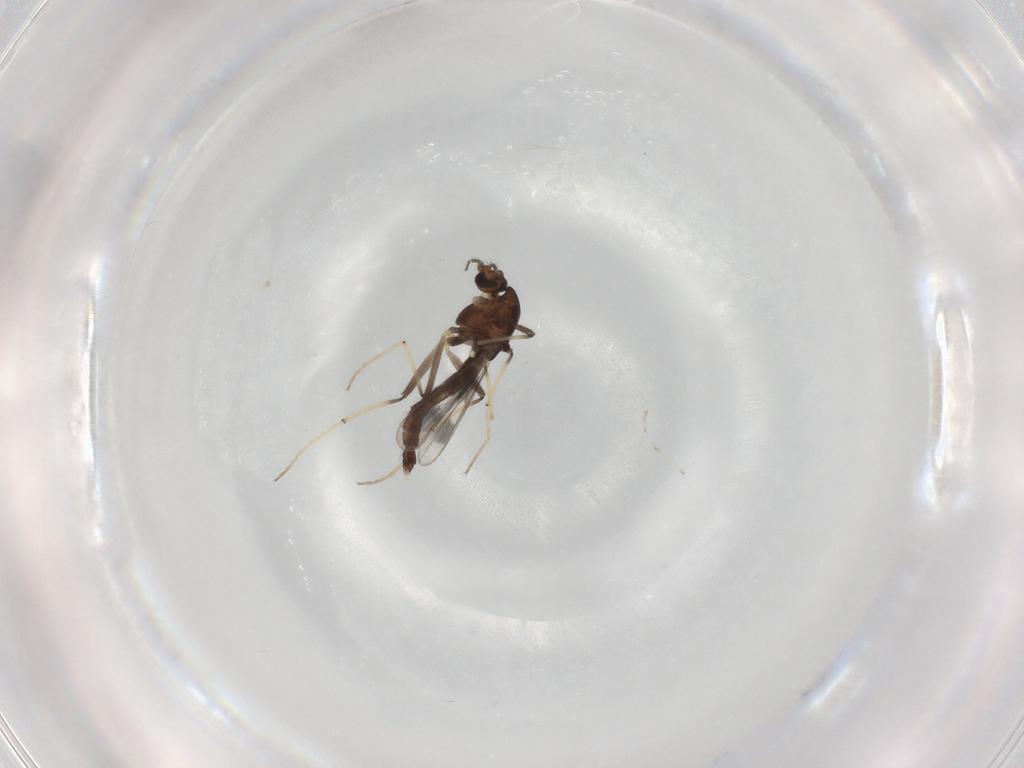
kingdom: Animalia
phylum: Arthropoda
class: Insecta
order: Diptera
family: Chironomidae
